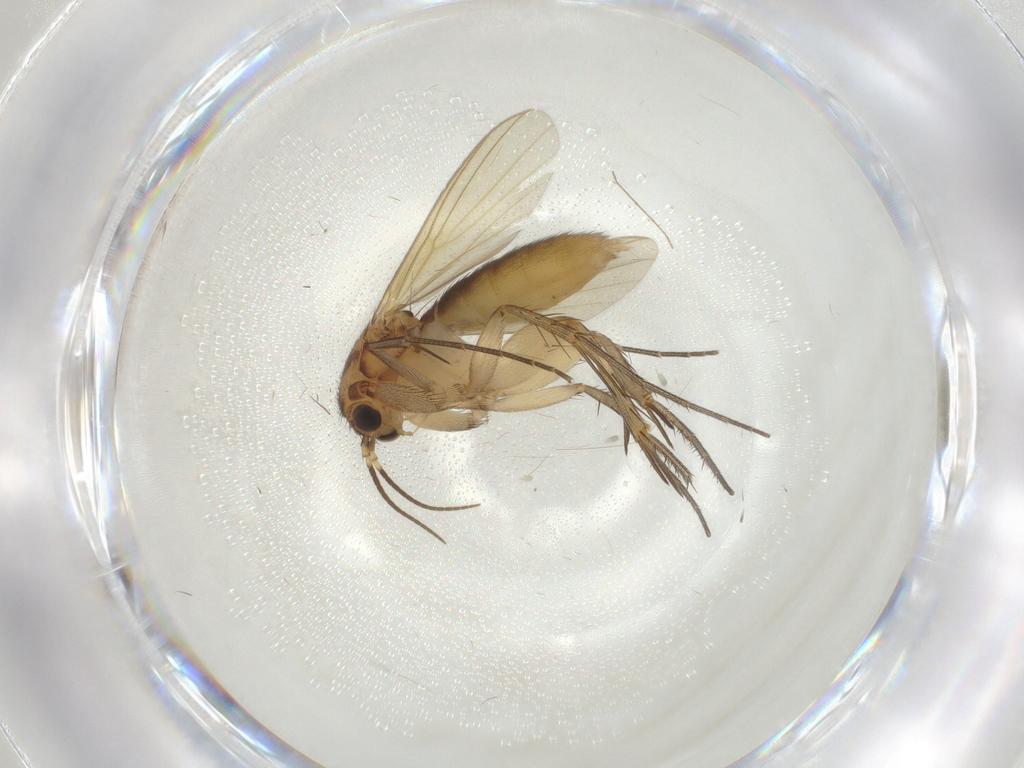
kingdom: Animalia
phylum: Arthropoda
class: Insecta
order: Diptera
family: Mycetophilidae
